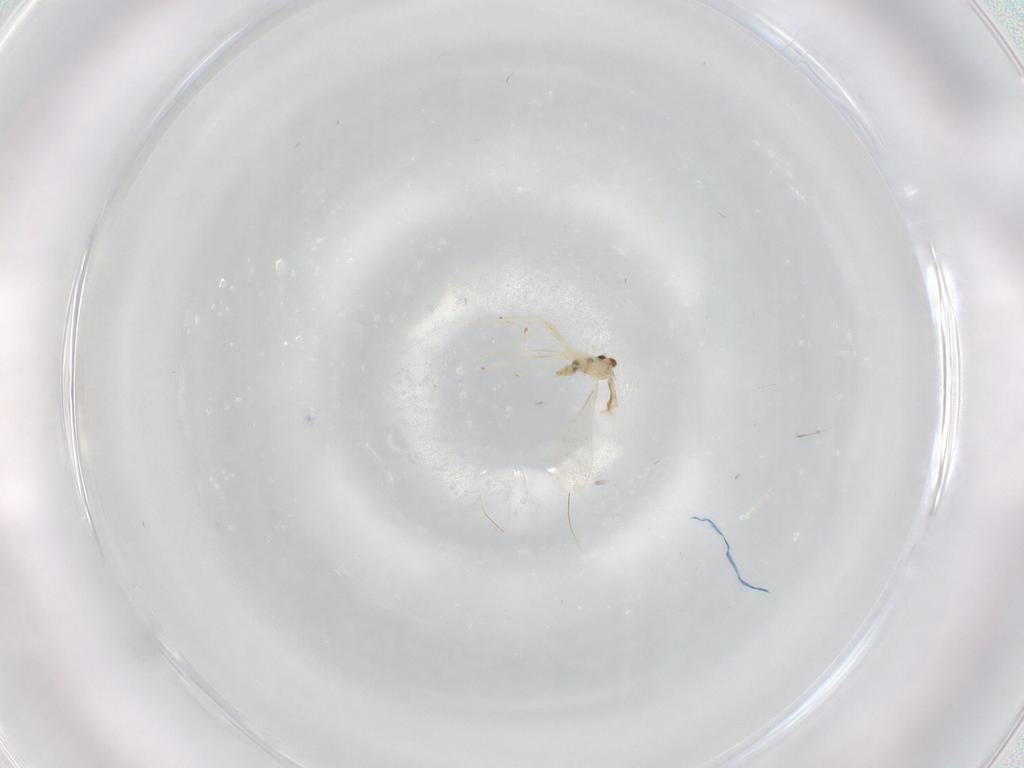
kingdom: Animalia
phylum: Arthropoda
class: Insecta
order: Diptera
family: Cecidomyiidae
